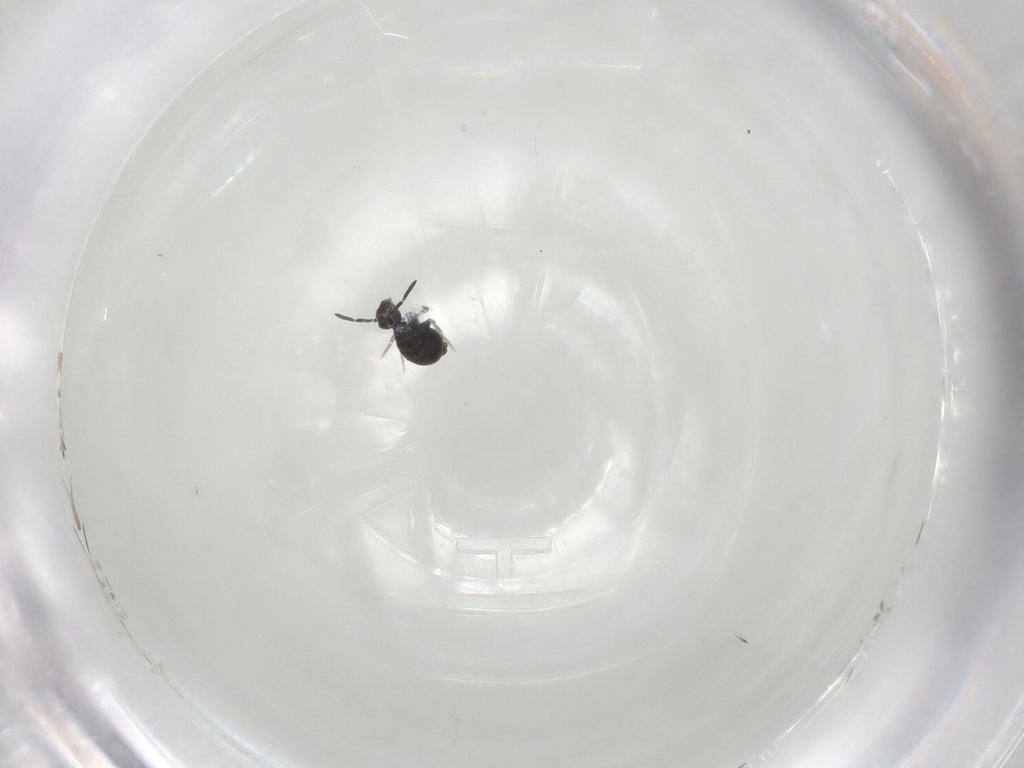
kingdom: Animalia
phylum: Arthropoda
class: Collembola
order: Symphypleona
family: Katiannidae
